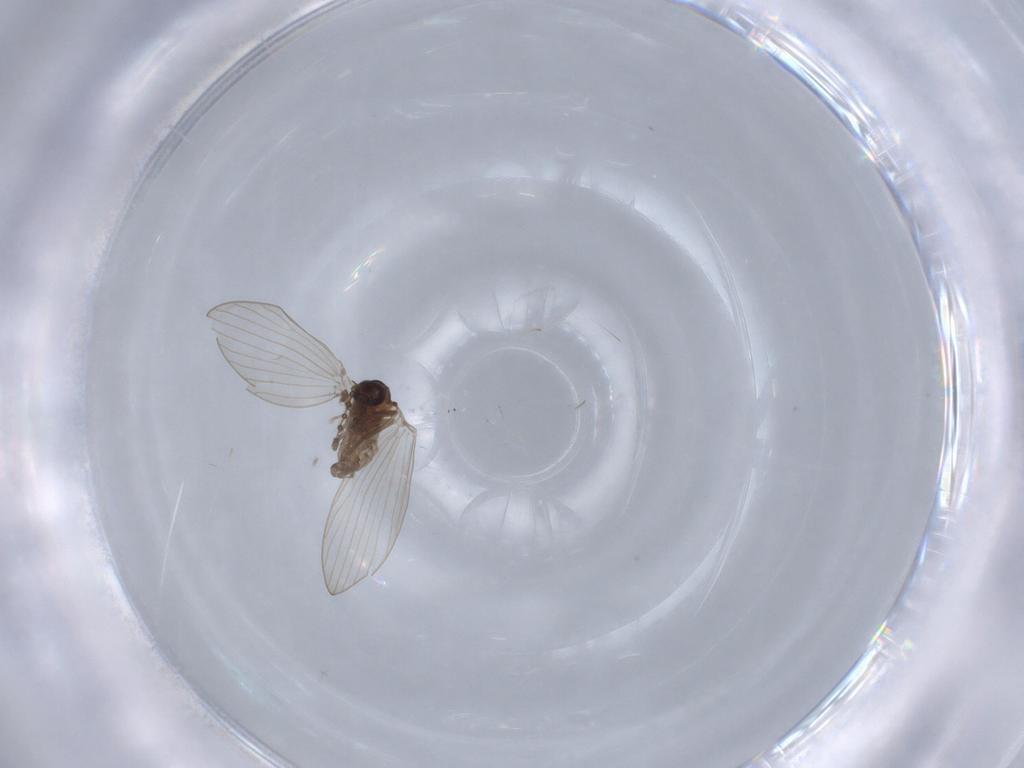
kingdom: Animalia
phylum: Arthropoda
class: Insecta
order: Diptera
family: Psychodidae
